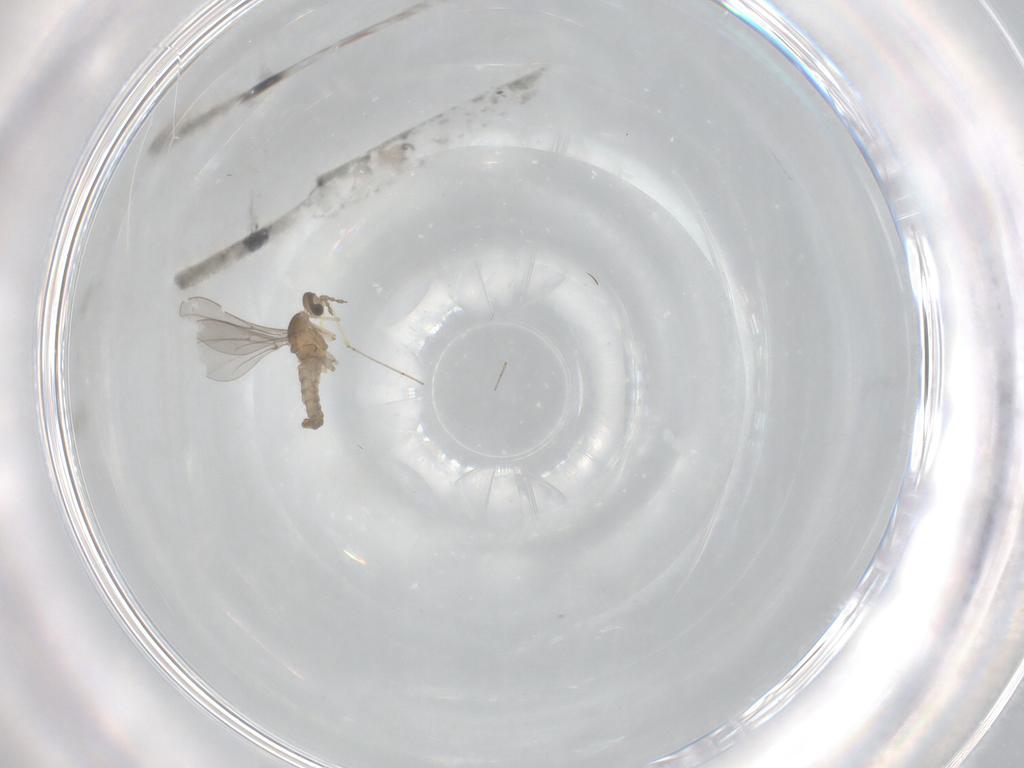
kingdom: Animalia
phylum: Arthropoda
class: Insecta
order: Diptera
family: Cecidomyiidae
